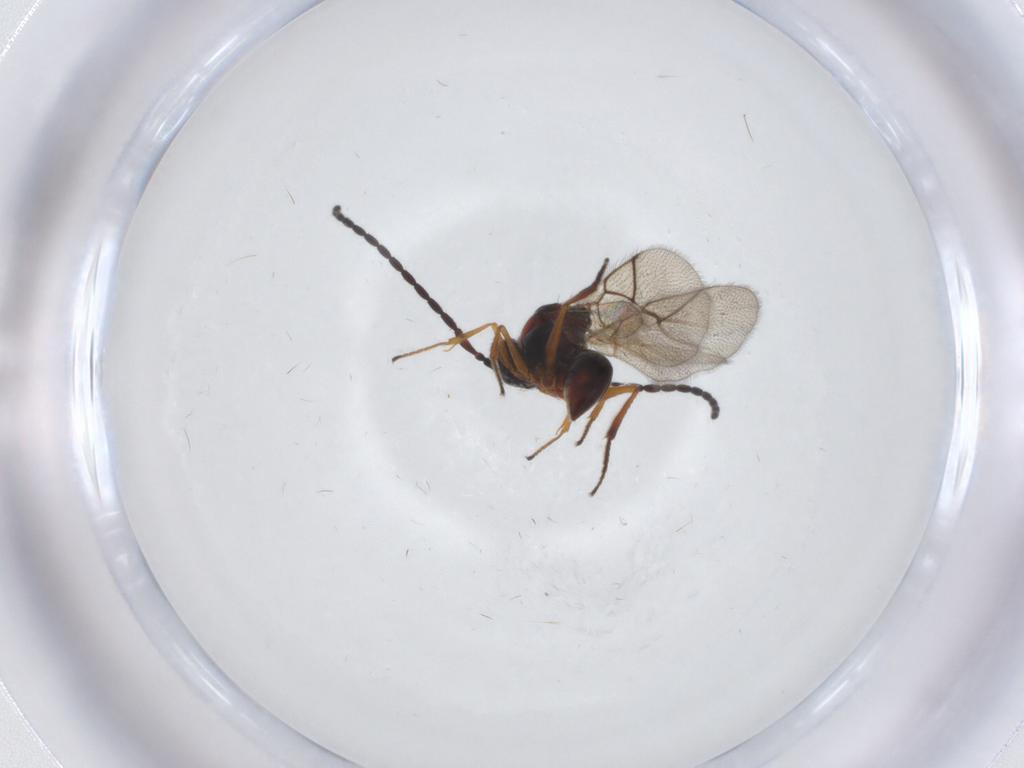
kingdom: Animalia
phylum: Arthropoda
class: Insecta
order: Hymenoptera
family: Figitidae
